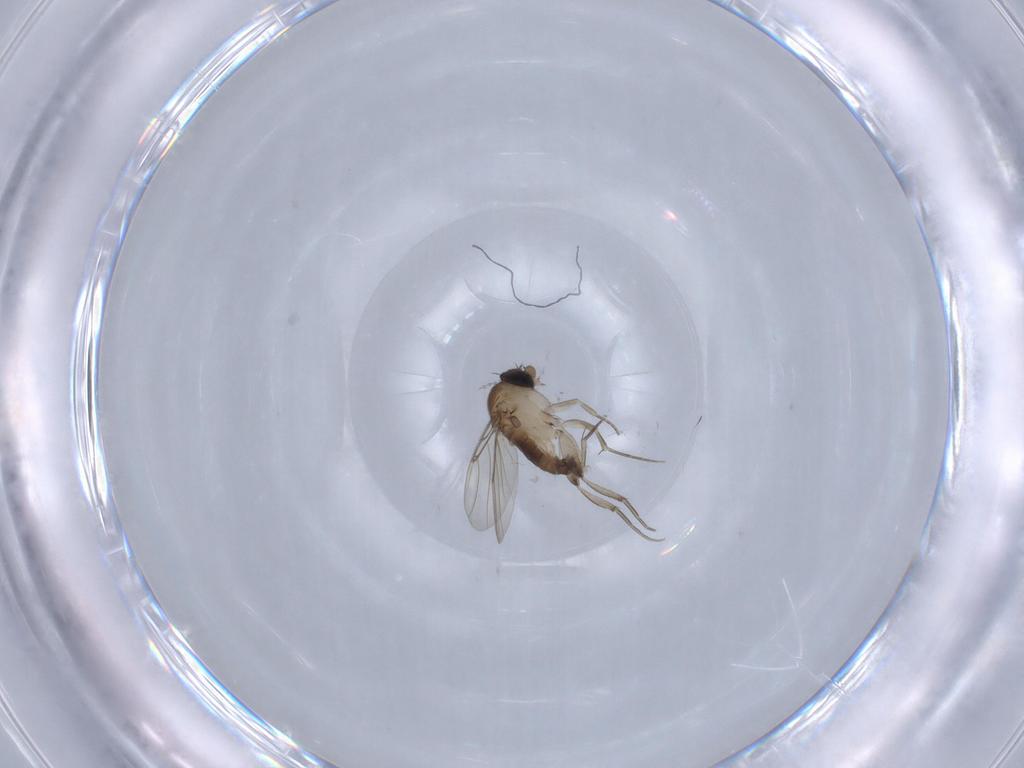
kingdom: Animalia
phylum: Arthropoda
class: Insecta
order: Diptera
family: Phoridae
